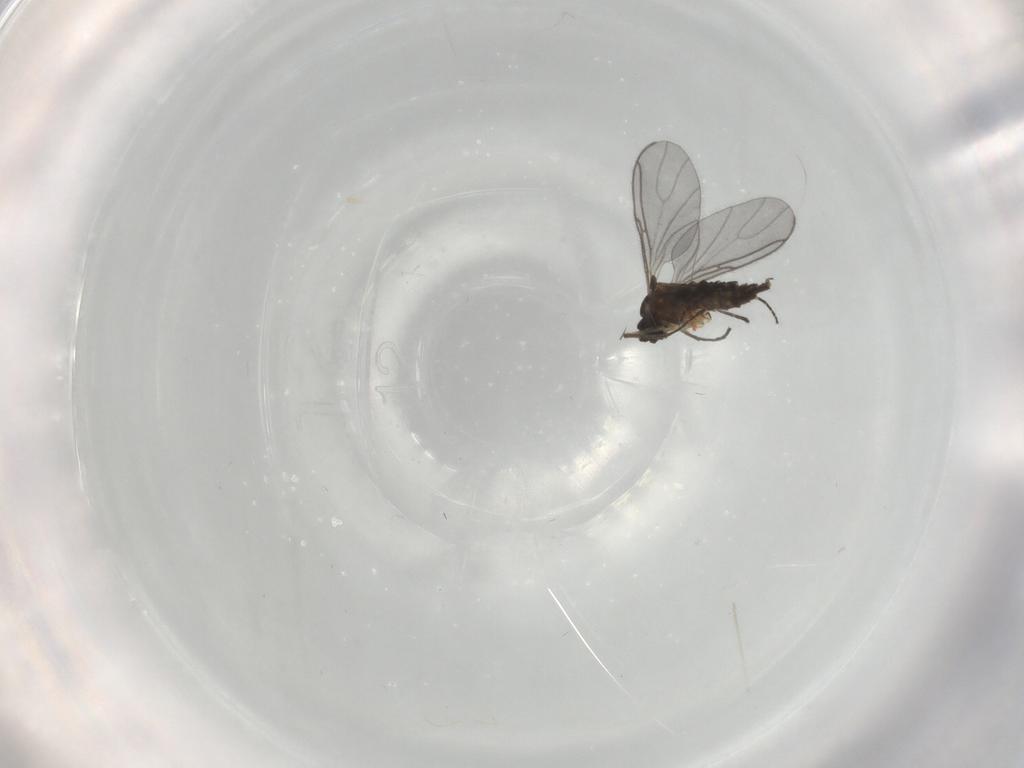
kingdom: Animalia
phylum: Arthropoda
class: Insecta
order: Diptera
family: Sciaridae
